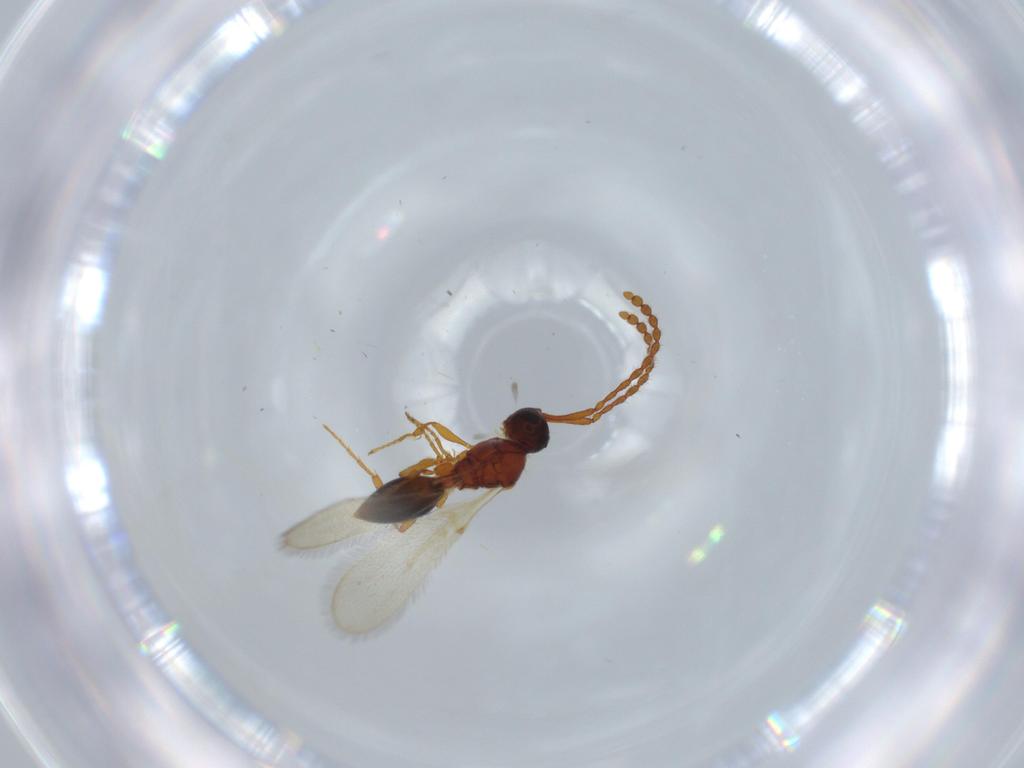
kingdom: Animalia
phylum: Arthropoda
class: Insecta
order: Hymenoptera
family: Diapriidae
